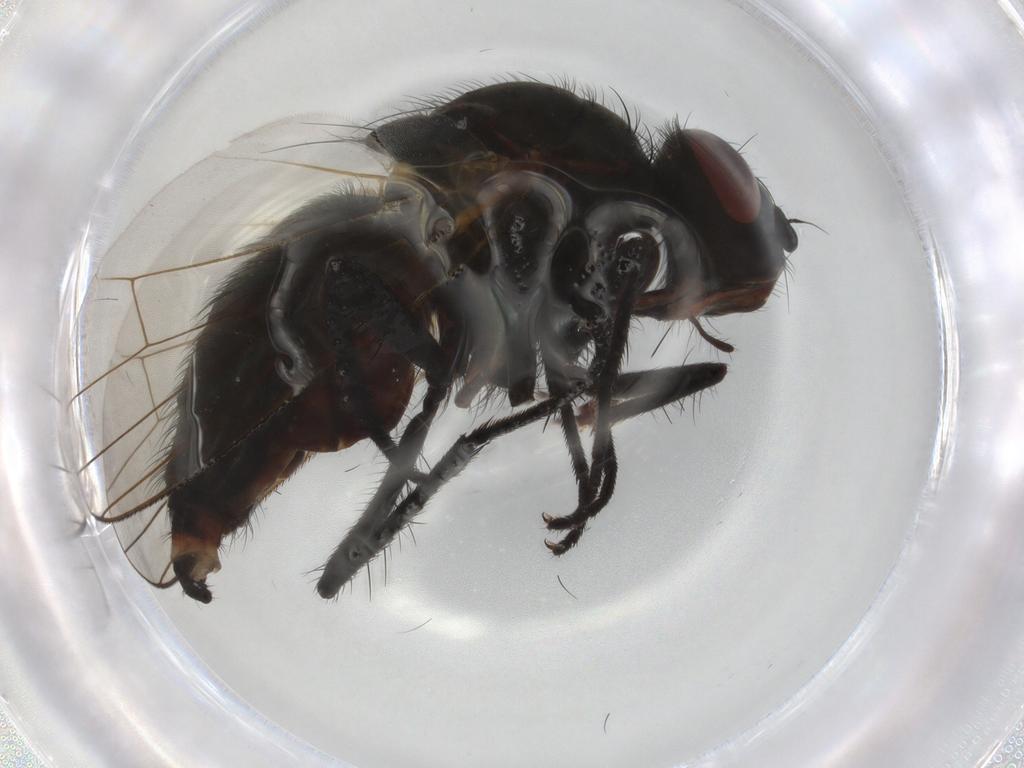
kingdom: Animalia
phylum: Arthropoda
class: Insecta
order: Diptera
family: Anthomyiidae
